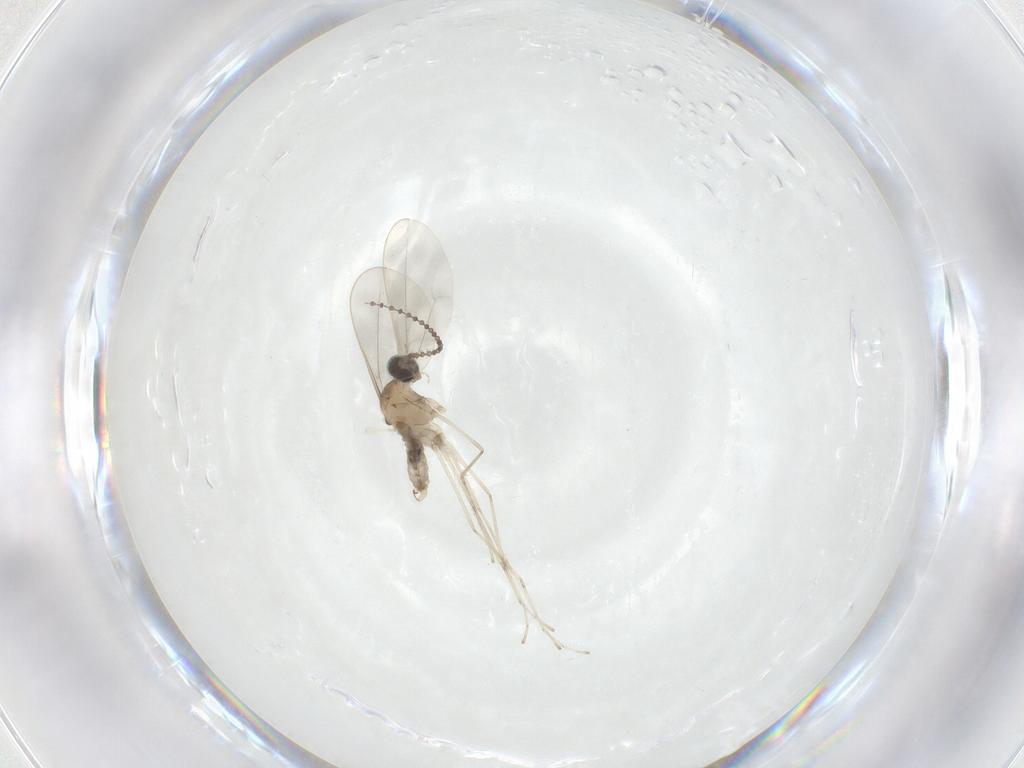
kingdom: Animalia
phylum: Arthropoda
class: Insecta
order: Diptera
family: Cecidomyiidae
